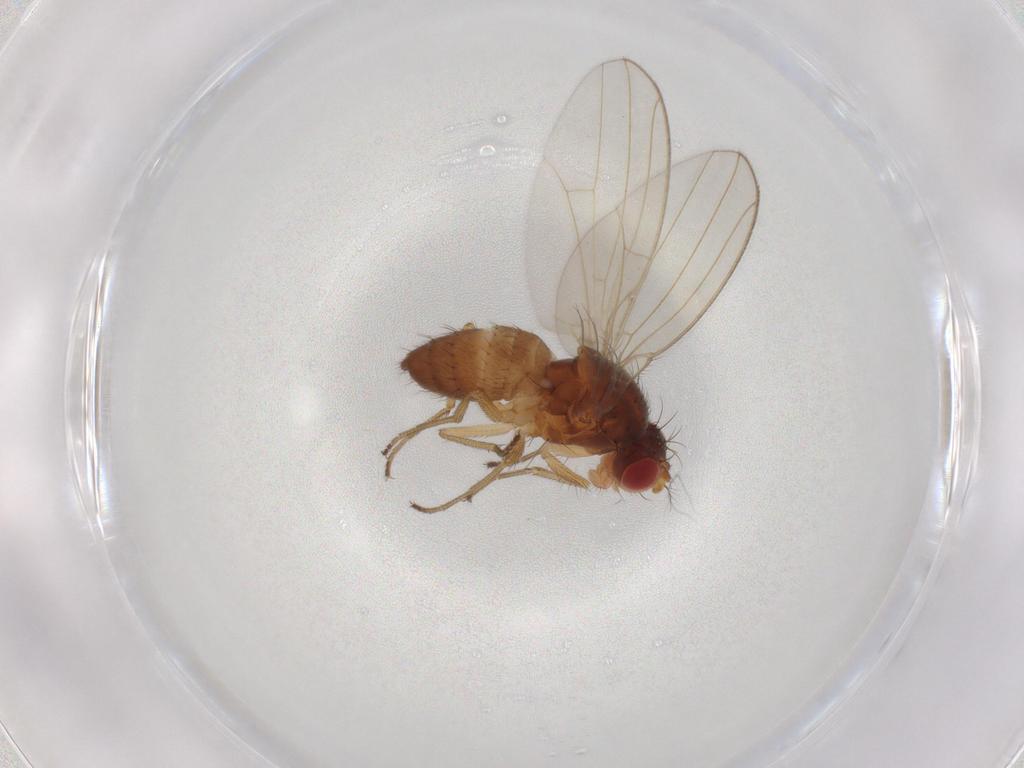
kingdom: Animalia
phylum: Arthropoda
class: Insecta
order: Diptera
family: Drosophilidae
